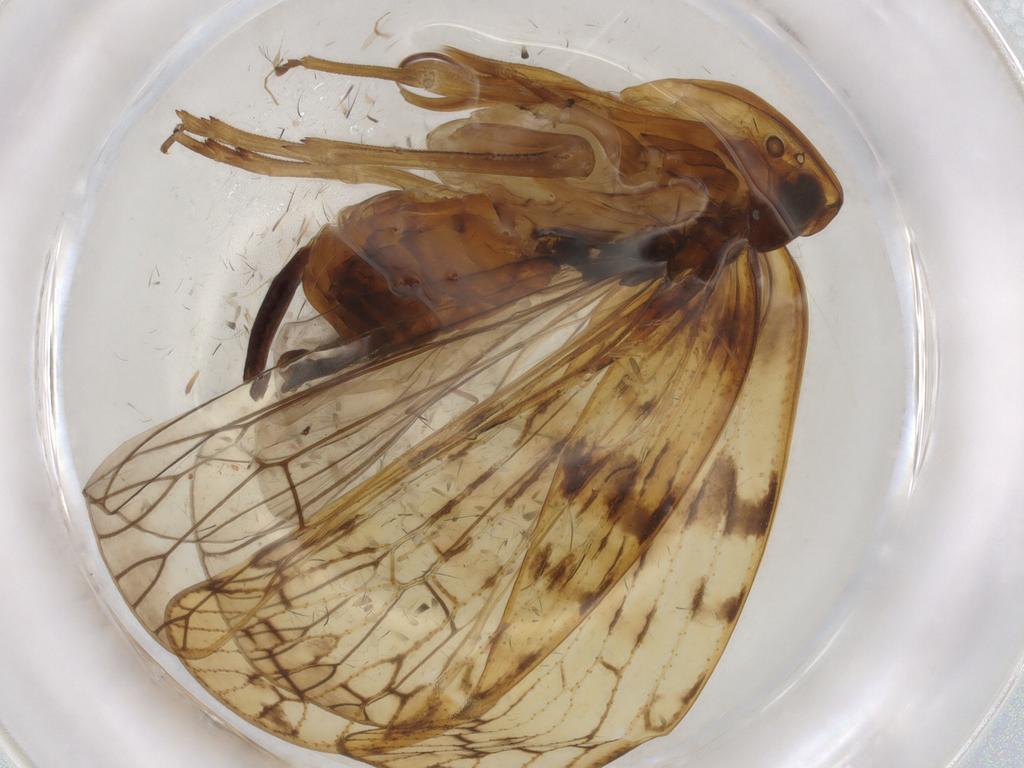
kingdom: Animalia
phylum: Arthropoda
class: Insecta
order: Hemiptera
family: Cixiidae
